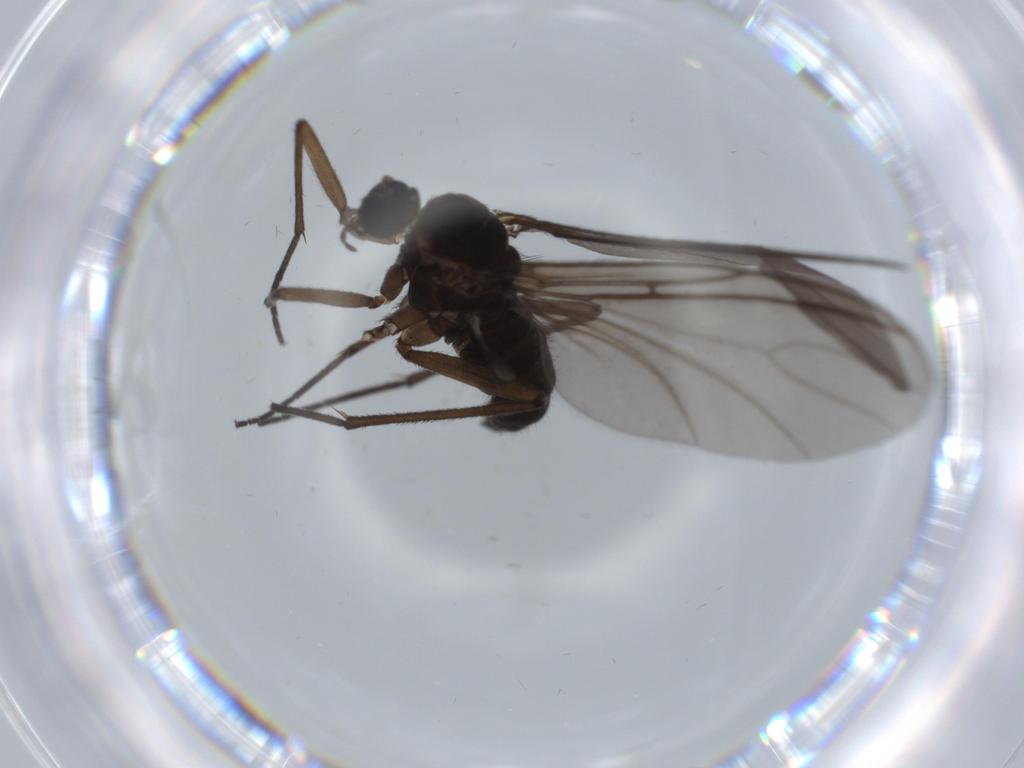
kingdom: Animalia
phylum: Arthropoda
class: Insecta
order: Diptera
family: Sciaridae
